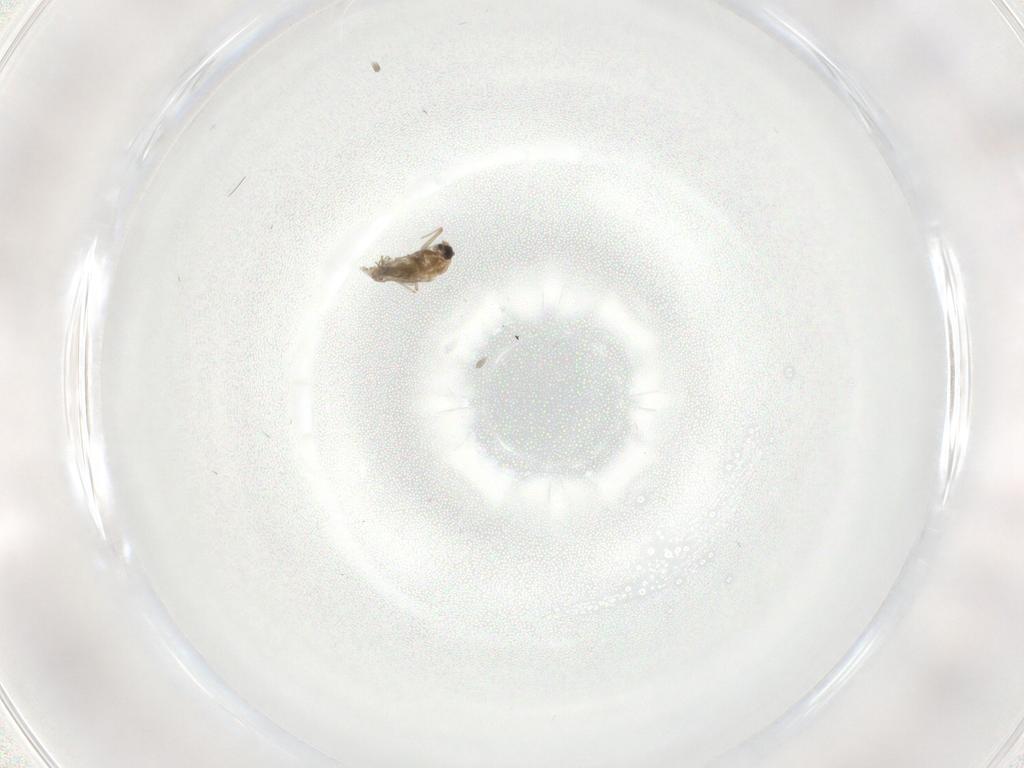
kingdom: Animalia
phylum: Arthropoda
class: Insecta
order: Diptera
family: Chironomidae
